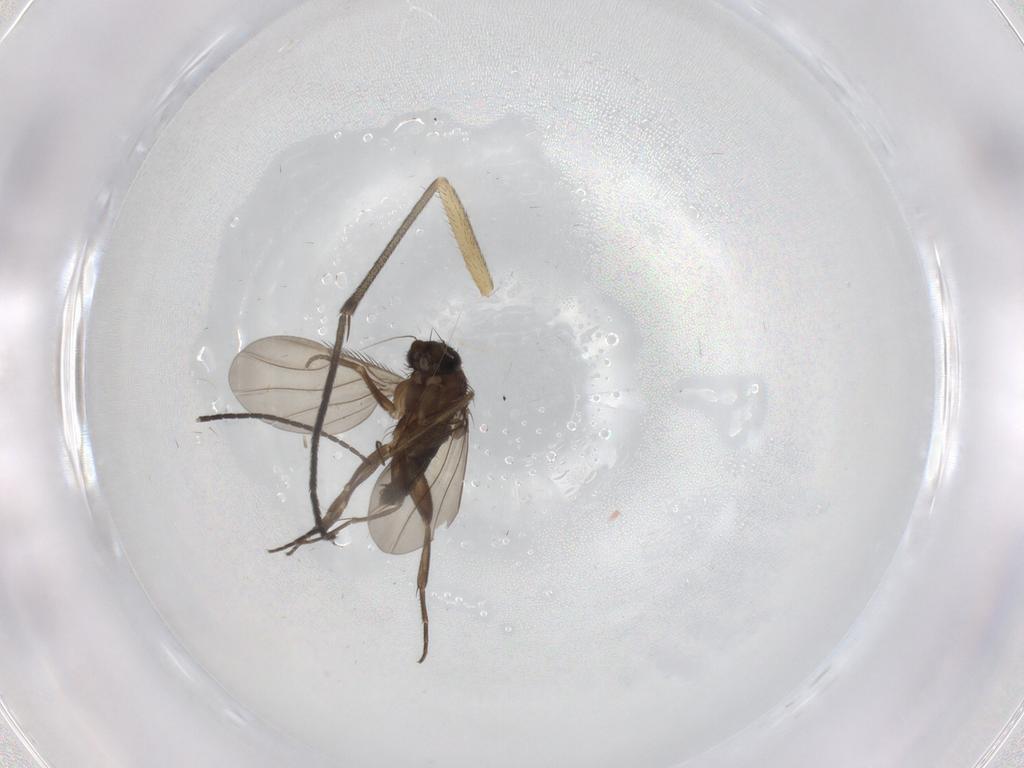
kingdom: Animalia
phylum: Arthropoda
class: Insecta
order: Diptera
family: Phoridae
